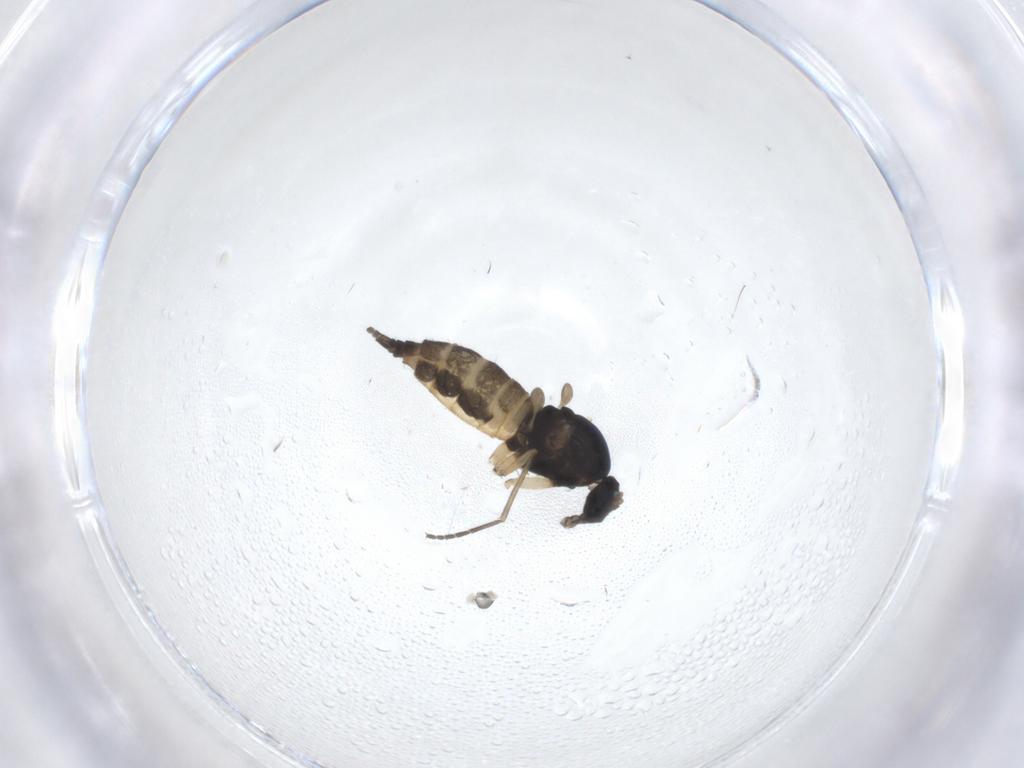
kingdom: Animalia
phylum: Arthropoda
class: Insecta
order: Diptera
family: Sciaridae
